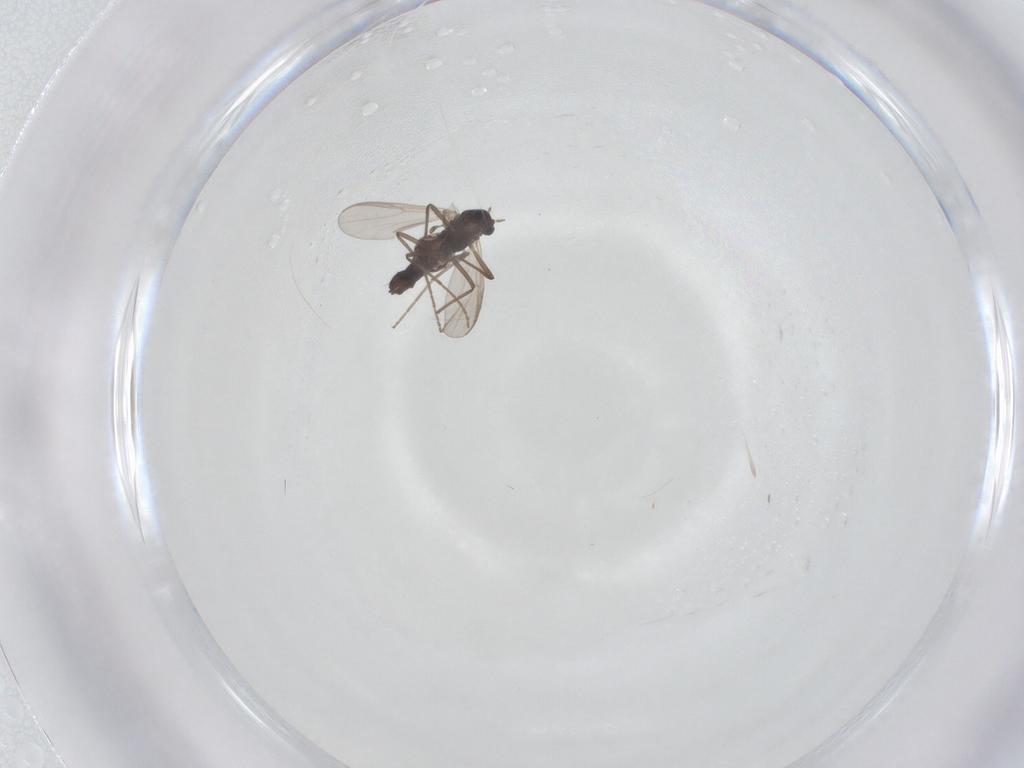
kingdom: Animalia
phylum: Arthropoda
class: Insecta
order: Diptera
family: Chironomidae
